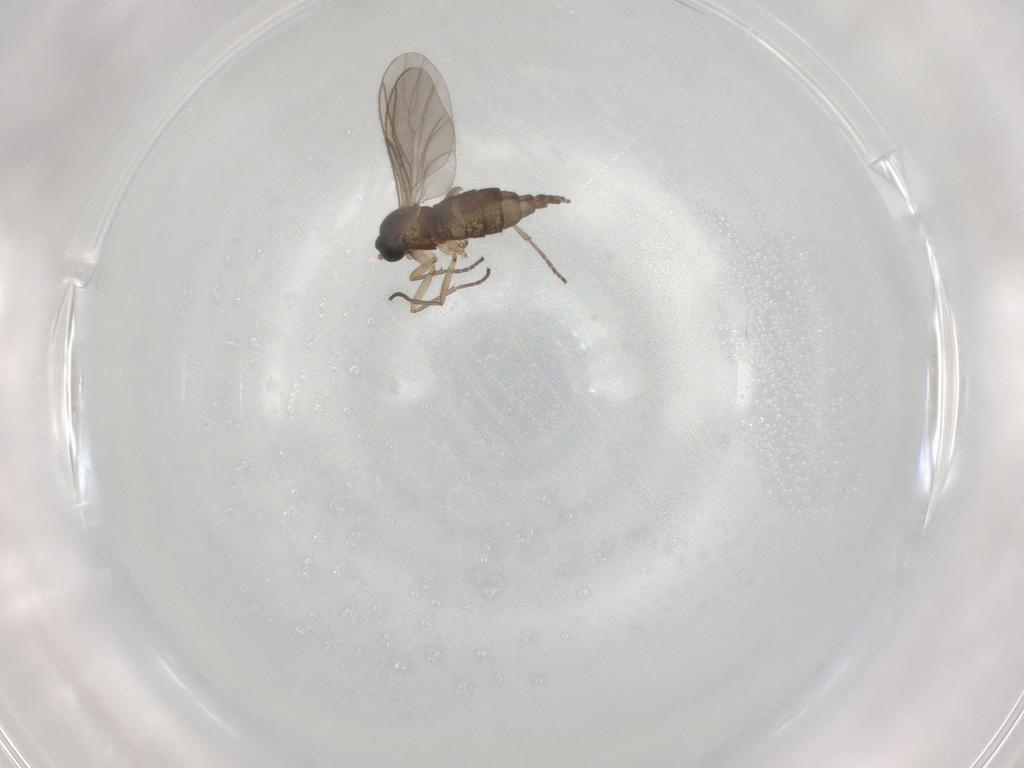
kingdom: Animalia
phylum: Arthropoda
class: Insecta
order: Diptera
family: Sciaridae
